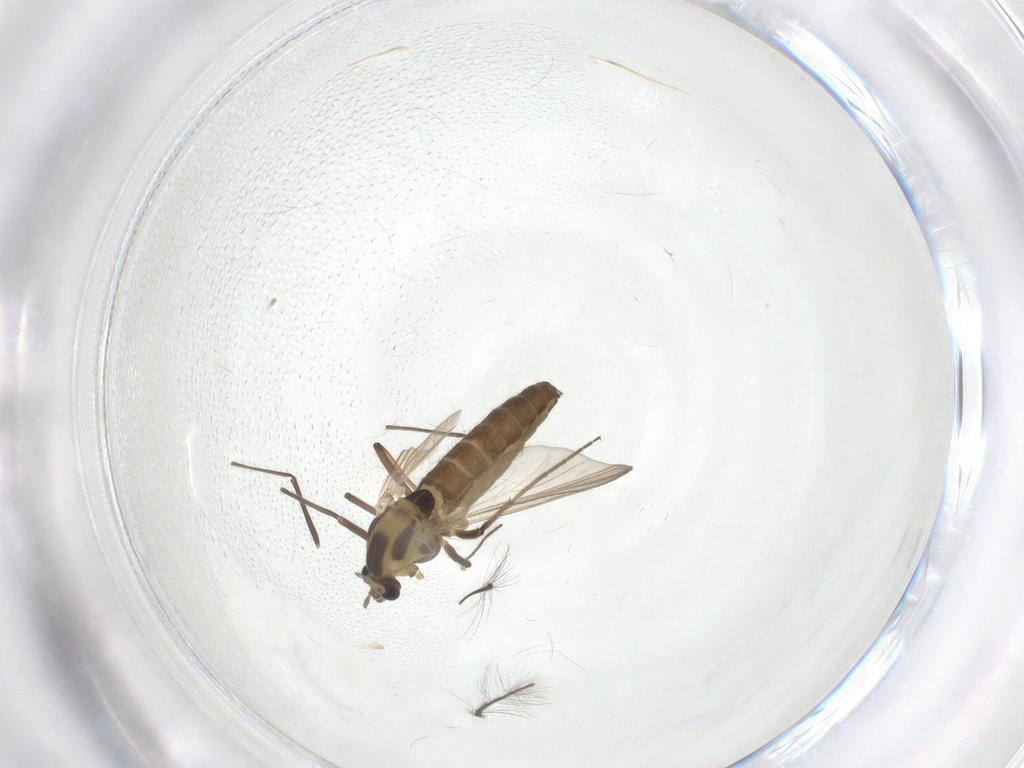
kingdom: Animalia
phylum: Arthropoda
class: Insecta
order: Diptera
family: Chironomidae
